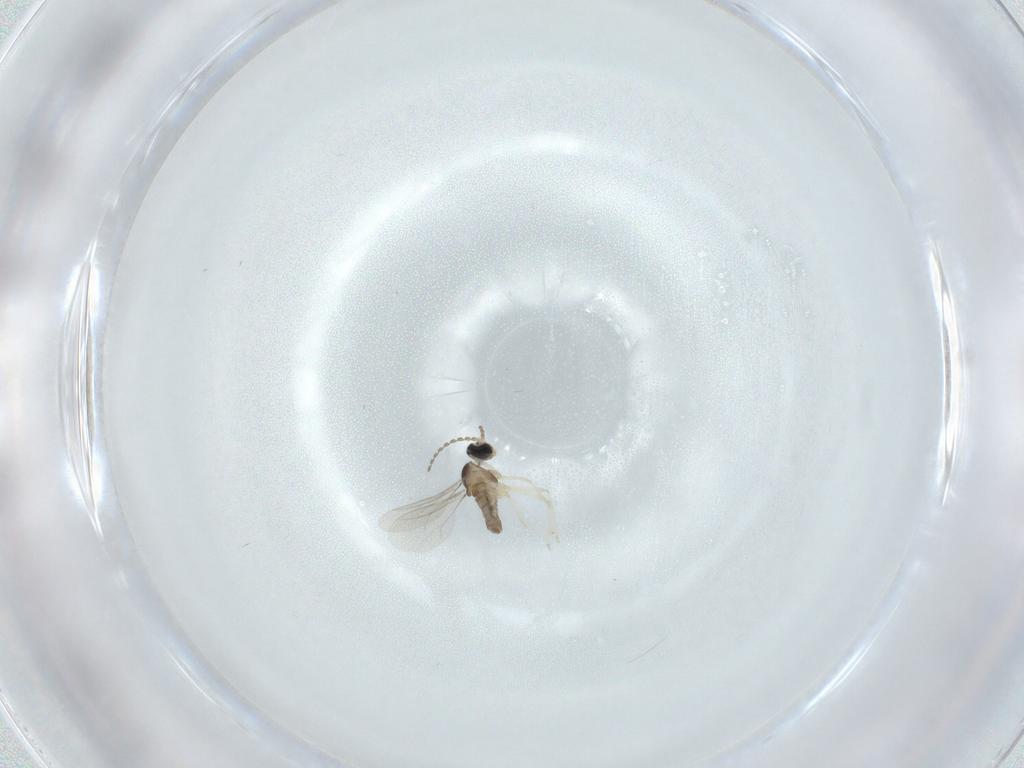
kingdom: Animalia
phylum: Arthropoda
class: Insecta
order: Diptera
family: Cecidomyiidae
